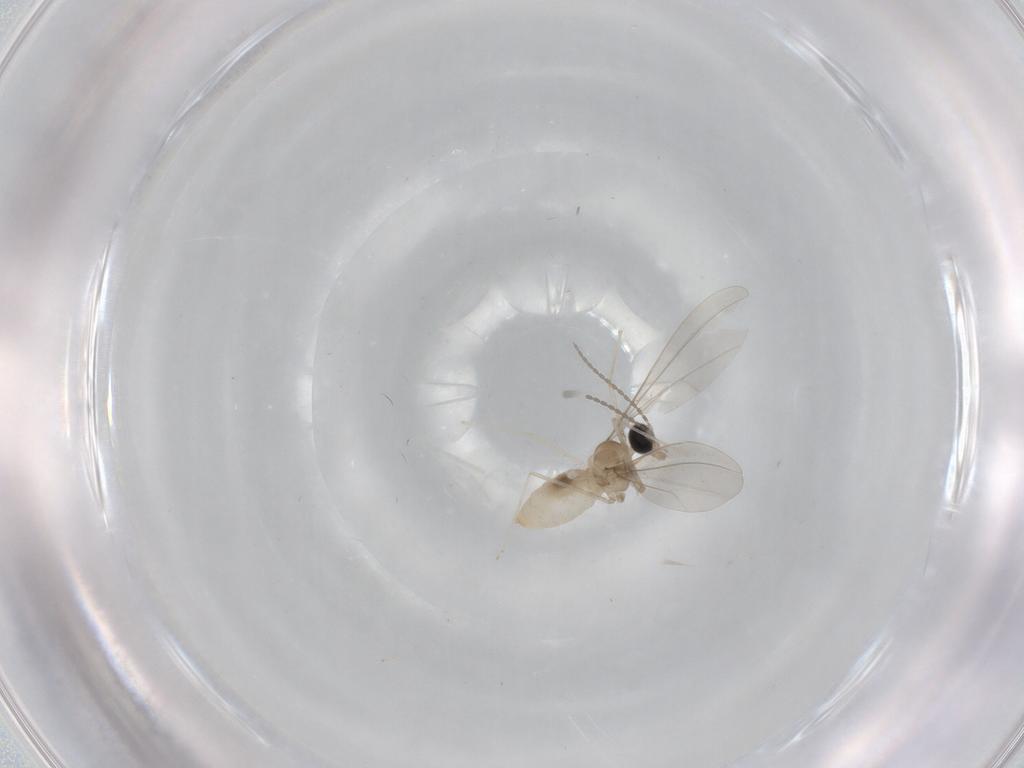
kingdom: Animalia
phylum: Arthropoda
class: Insecta
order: Diptera
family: Cecidomyiidae
